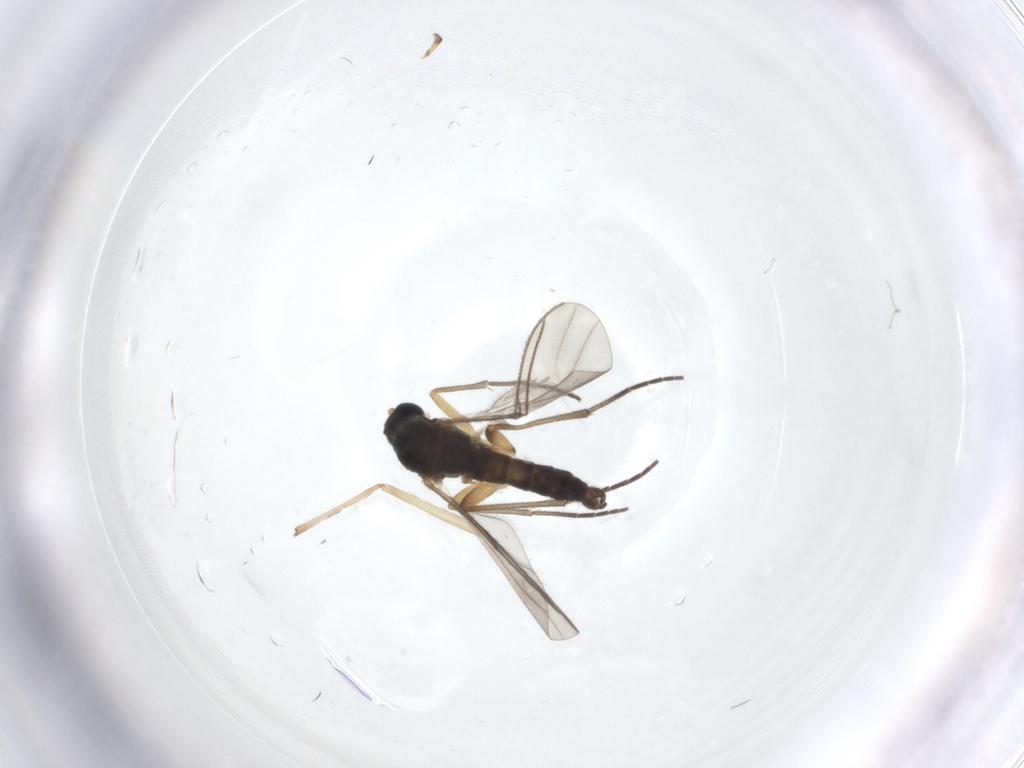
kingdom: Animalia
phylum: Arthropoda
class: Insecta
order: Diptera
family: Sciaridae
